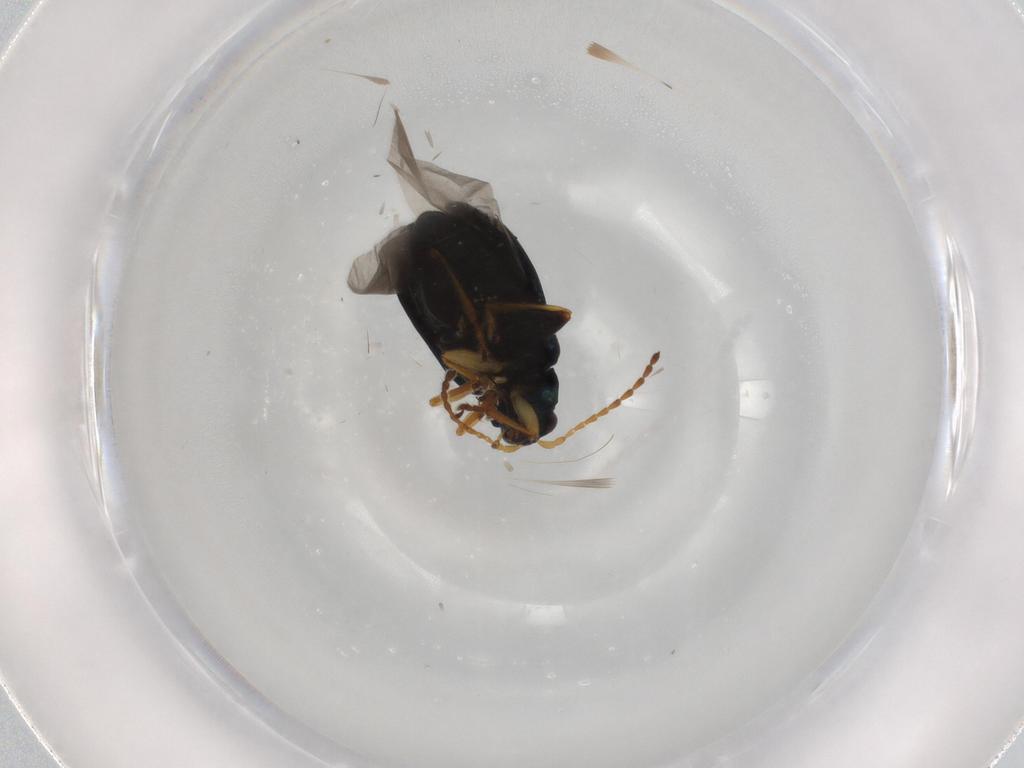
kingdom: Animalia
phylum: Arthropoda
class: Insecta
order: Coleoptera
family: Chrysomelidae
